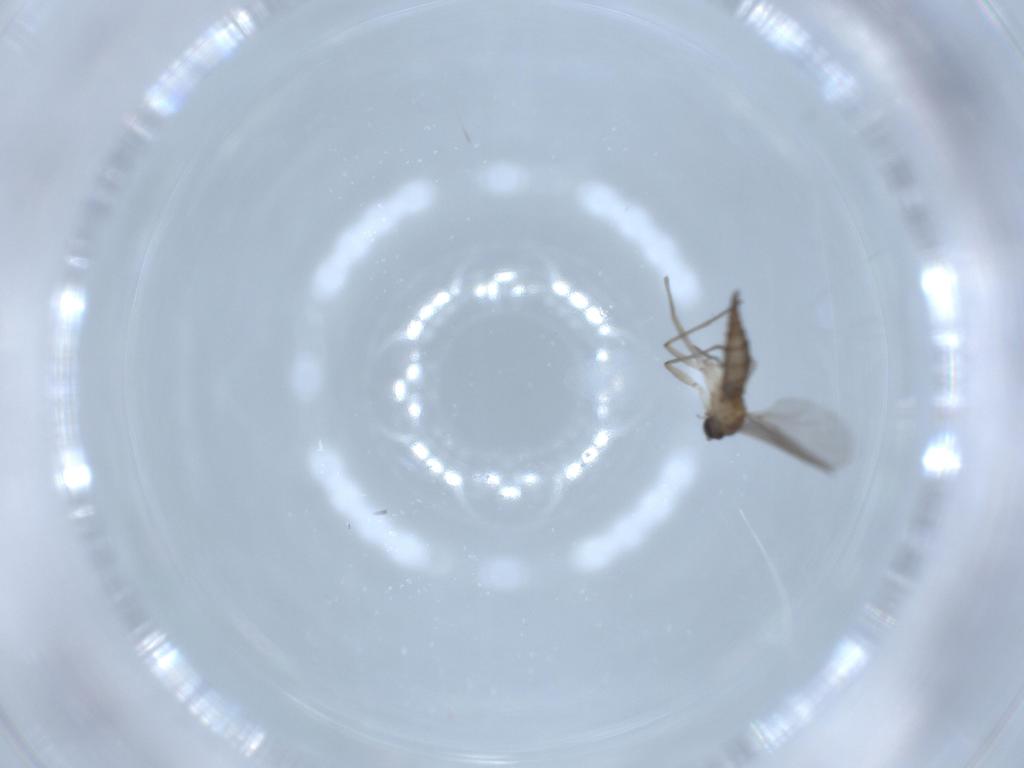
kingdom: Animalia
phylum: Arthropoda
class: Insecta
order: Diptera
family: Sciaridae
